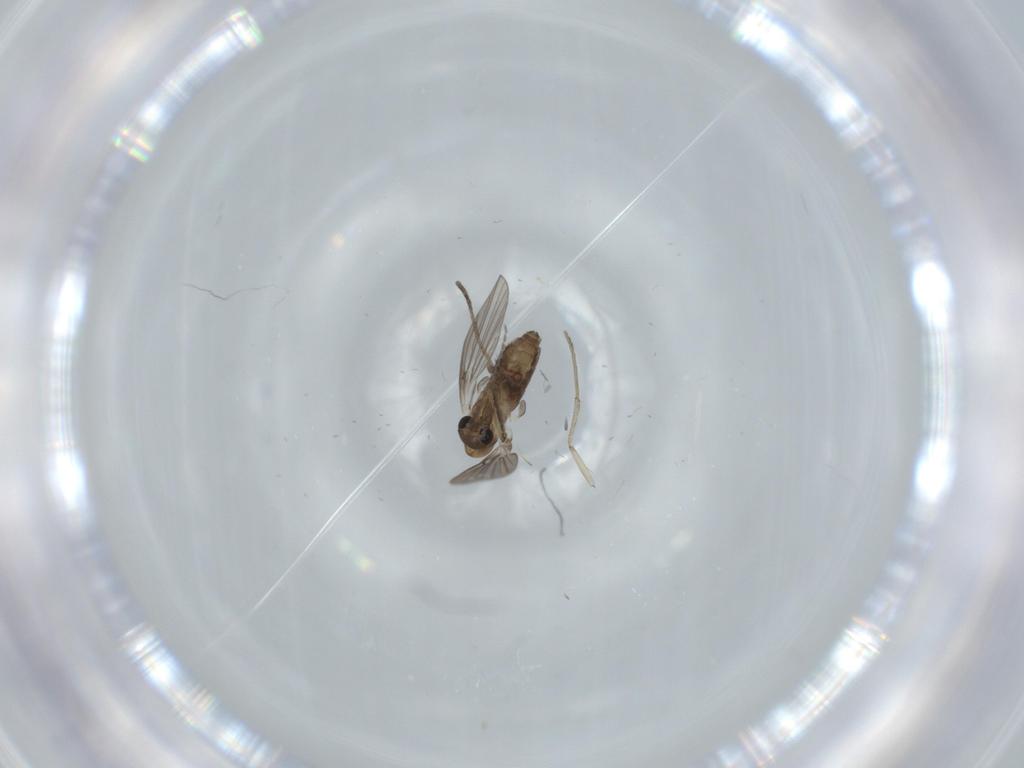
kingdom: Animalia
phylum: Arthropoda
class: Insecta
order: Diptera
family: Psychodidae
